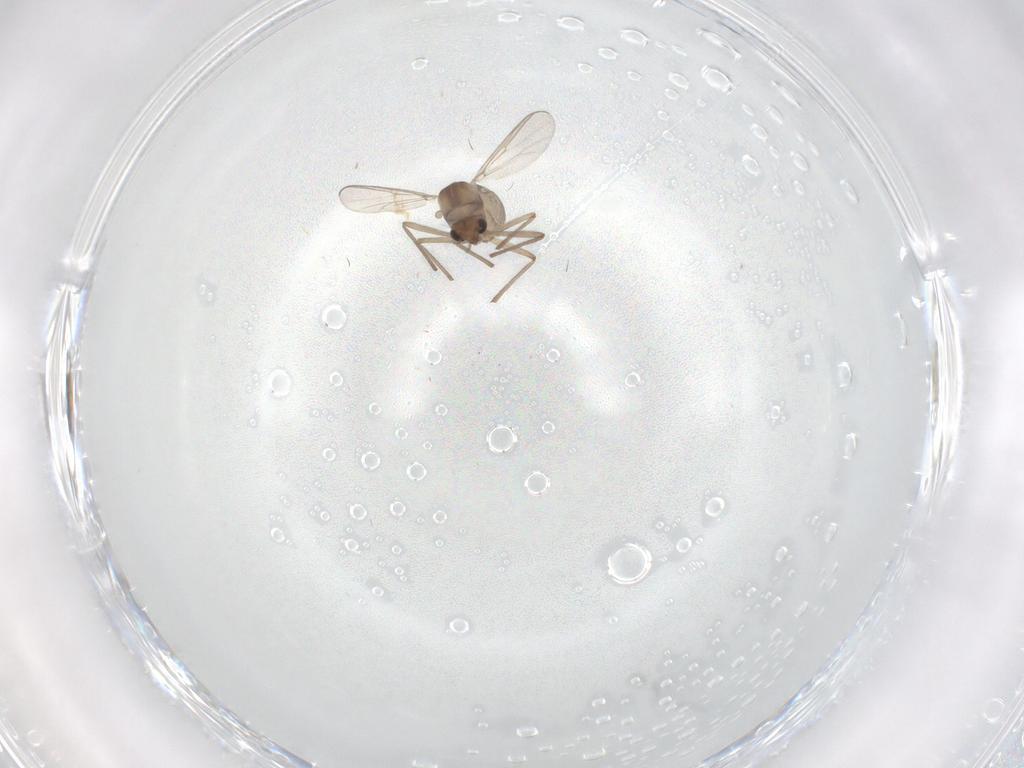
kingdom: Animalia
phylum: Arthropoda
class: Insecta
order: Diptera
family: Chironomidae
